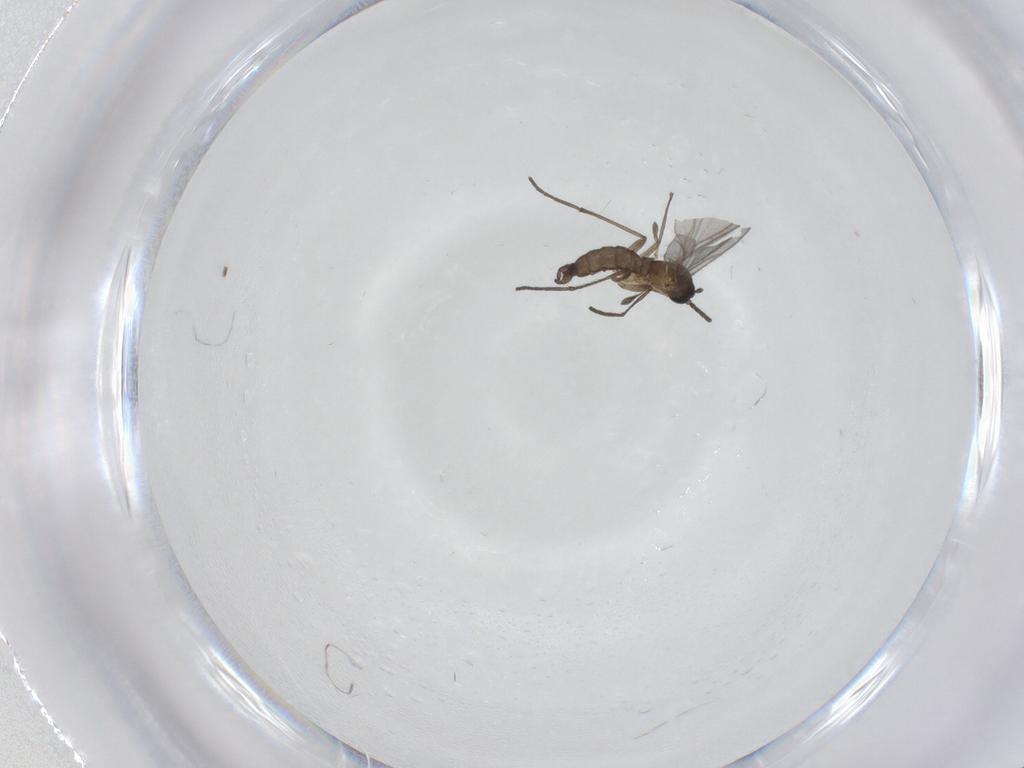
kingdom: Animalia
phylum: Arthropoda
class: Insecta
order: Diptera
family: Sciaridae
